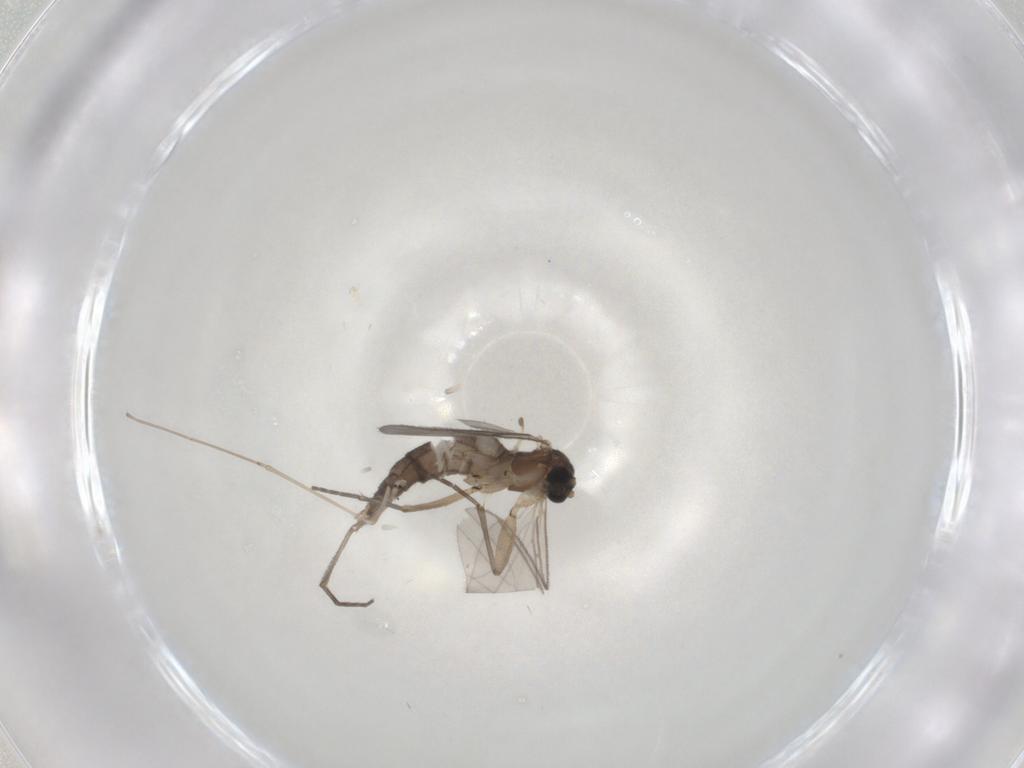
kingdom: Animalia
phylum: Arthropoda
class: Insecta
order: Diptera
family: Sciaridae
